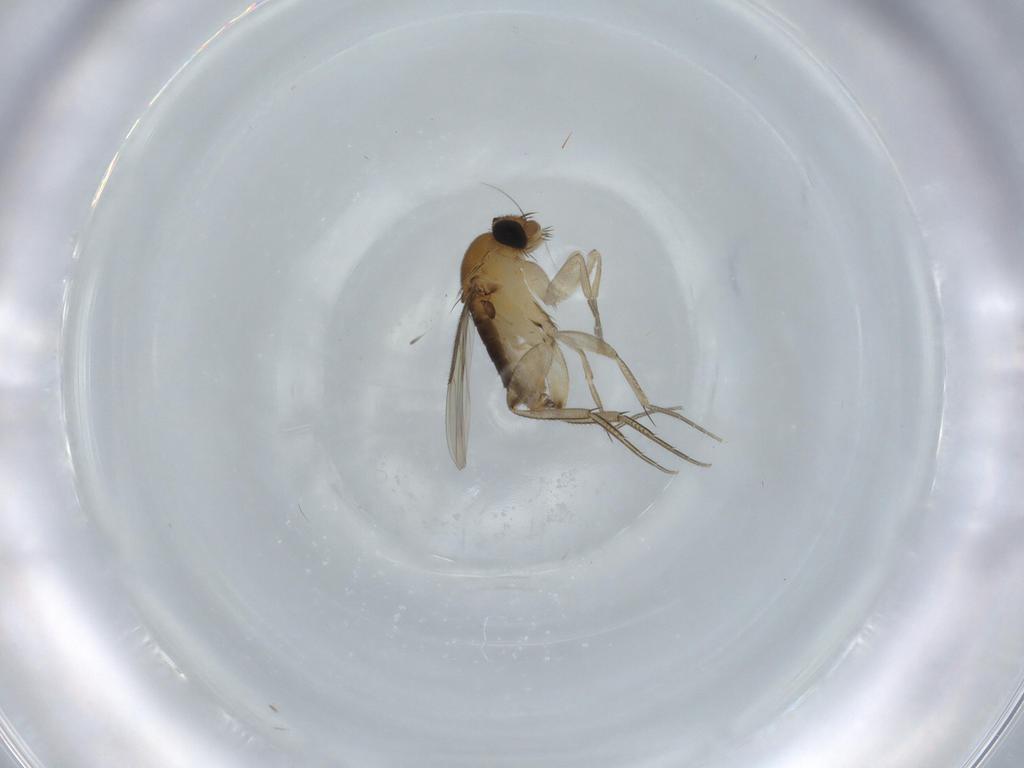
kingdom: Animalia
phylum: Arthropoda
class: Insecta
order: Diptera
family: Phoridae
